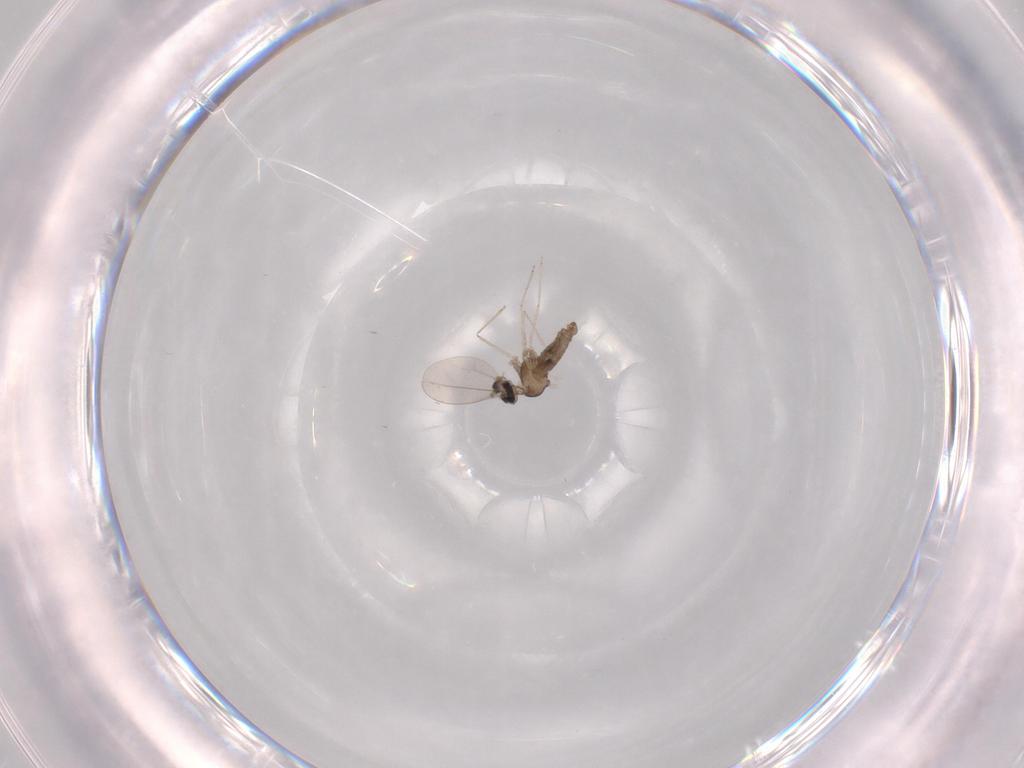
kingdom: Animalia
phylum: Arthropoda
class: Insecta
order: Diptera
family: Cecidomyiidae
